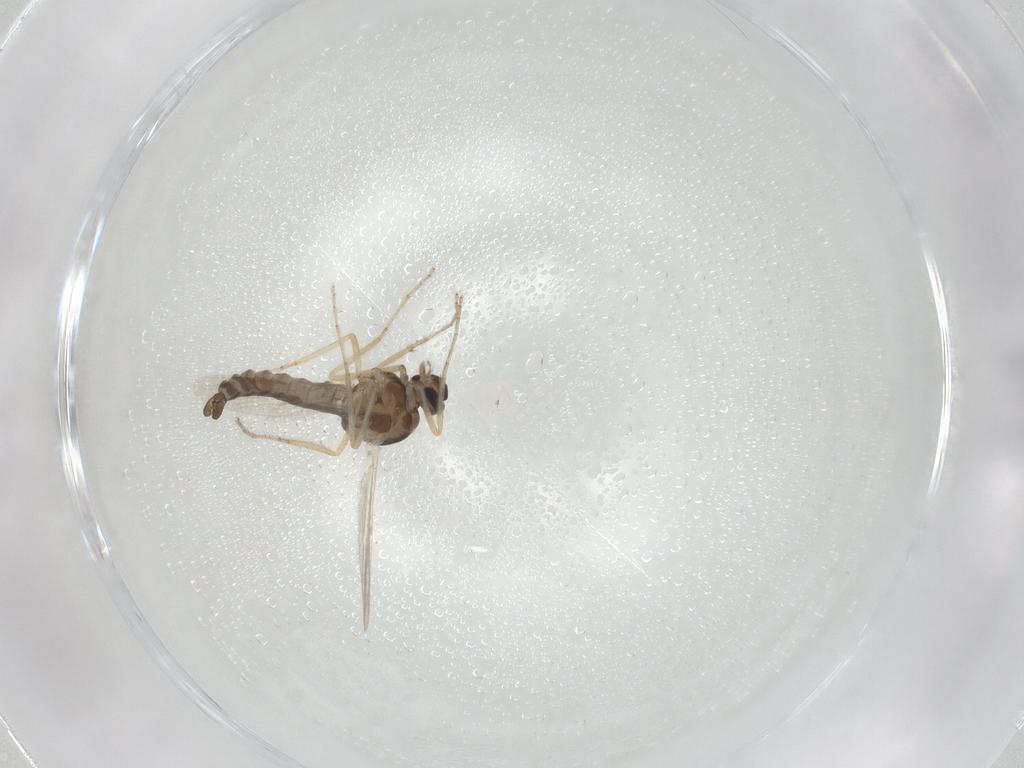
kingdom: Animalia
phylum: Arthropoda
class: Insecta
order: Diptera
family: Ceratopogonidae
